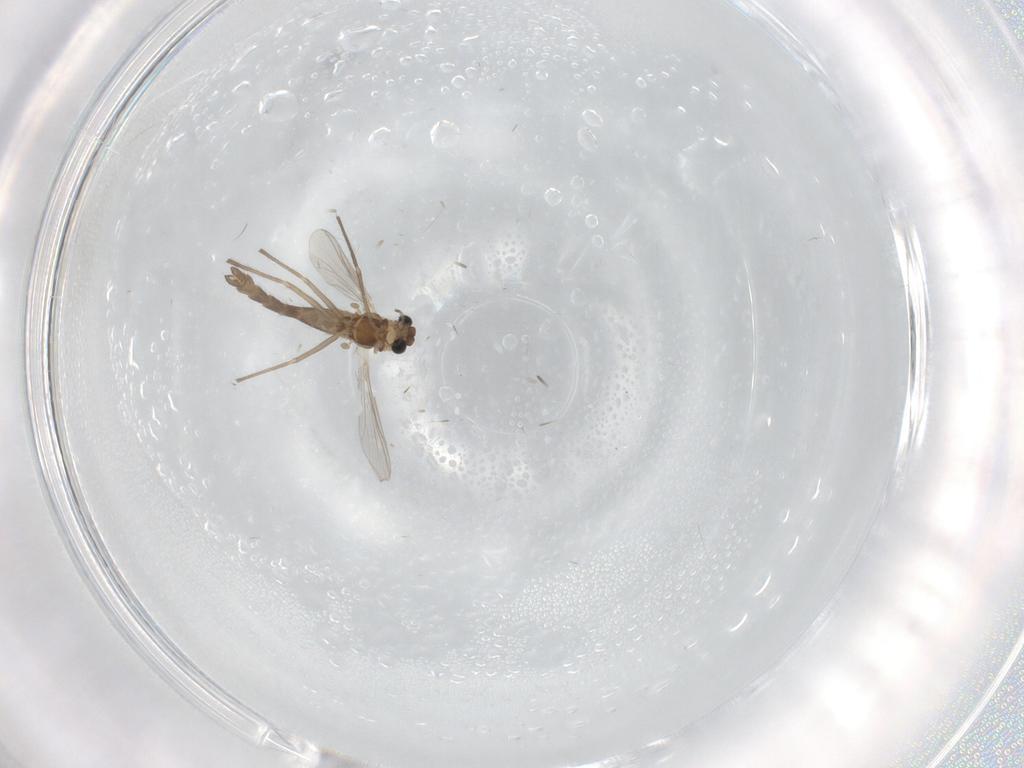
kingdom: Animalia
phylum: Arthropoda
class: Insecta
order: Diptera
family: Chironomidae
